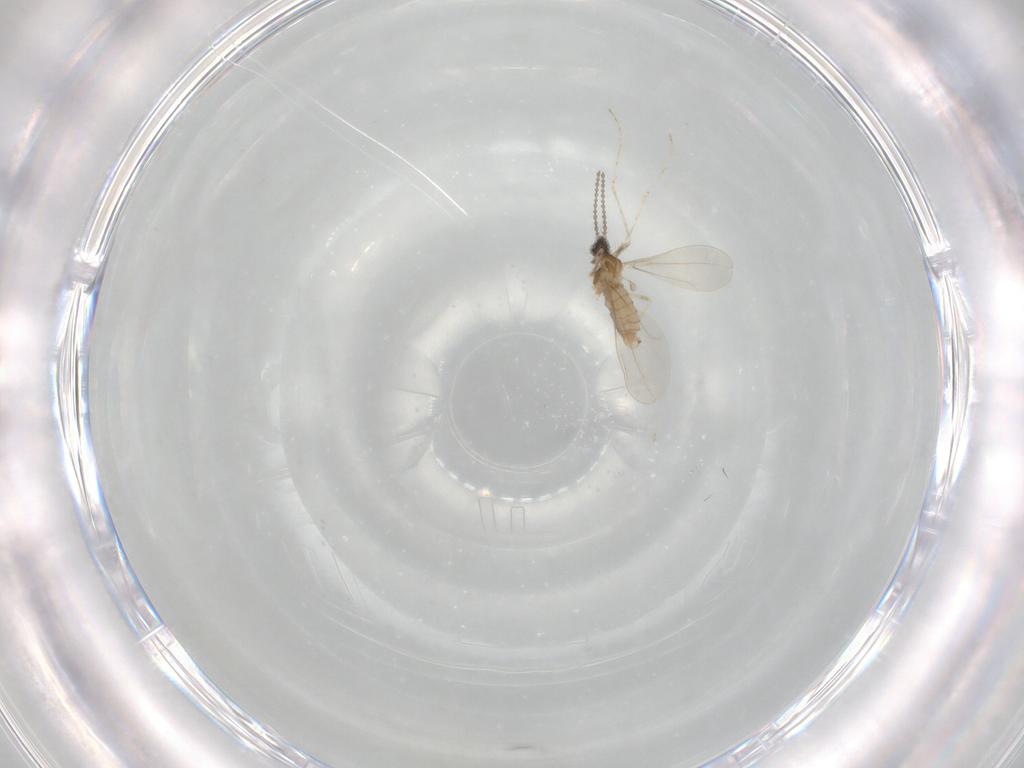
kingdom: Animalia
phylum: Arthropoda
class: Insecta
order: Diptera
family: Cecidomyiidae
